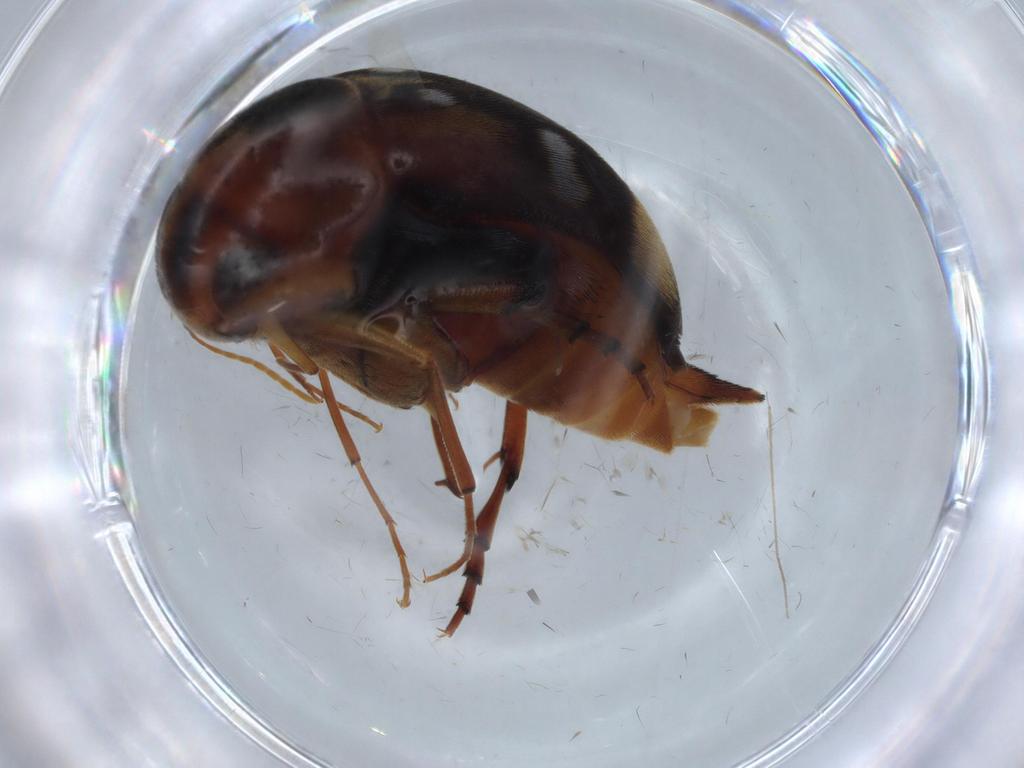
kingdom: Animalia
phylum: Arthropoda
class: Insecta
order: Coleoptera
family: Mordellidae
